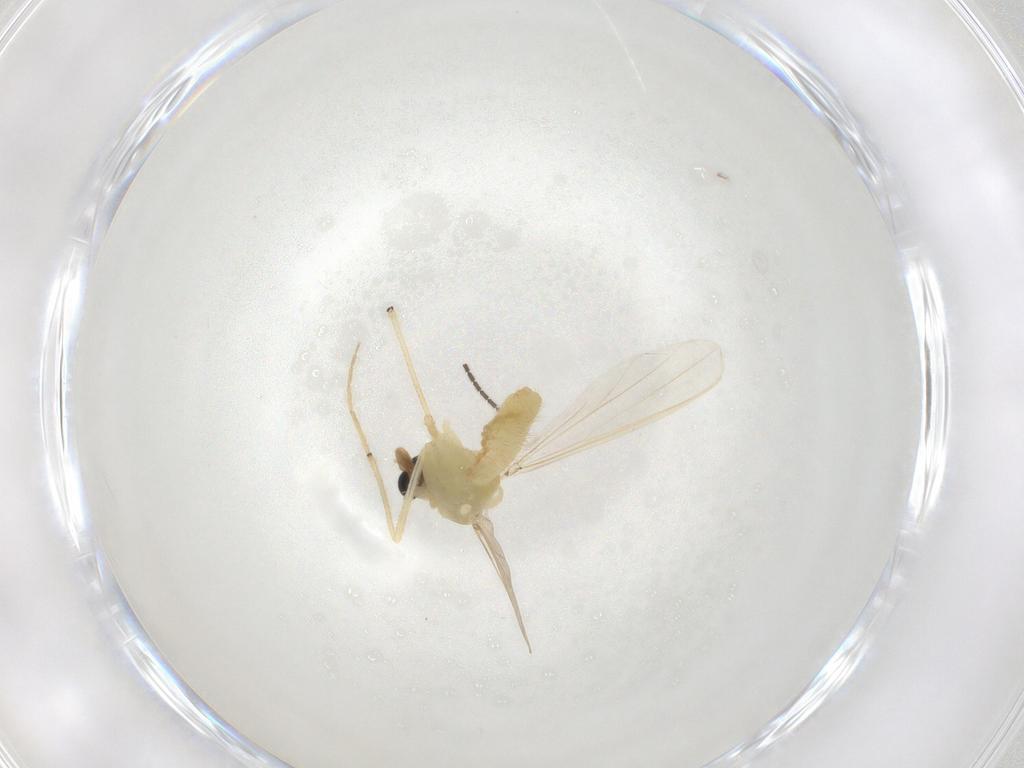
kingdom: Animalia
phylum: Arthropoda
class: Insecta
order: Diptera
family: Chironomidae
